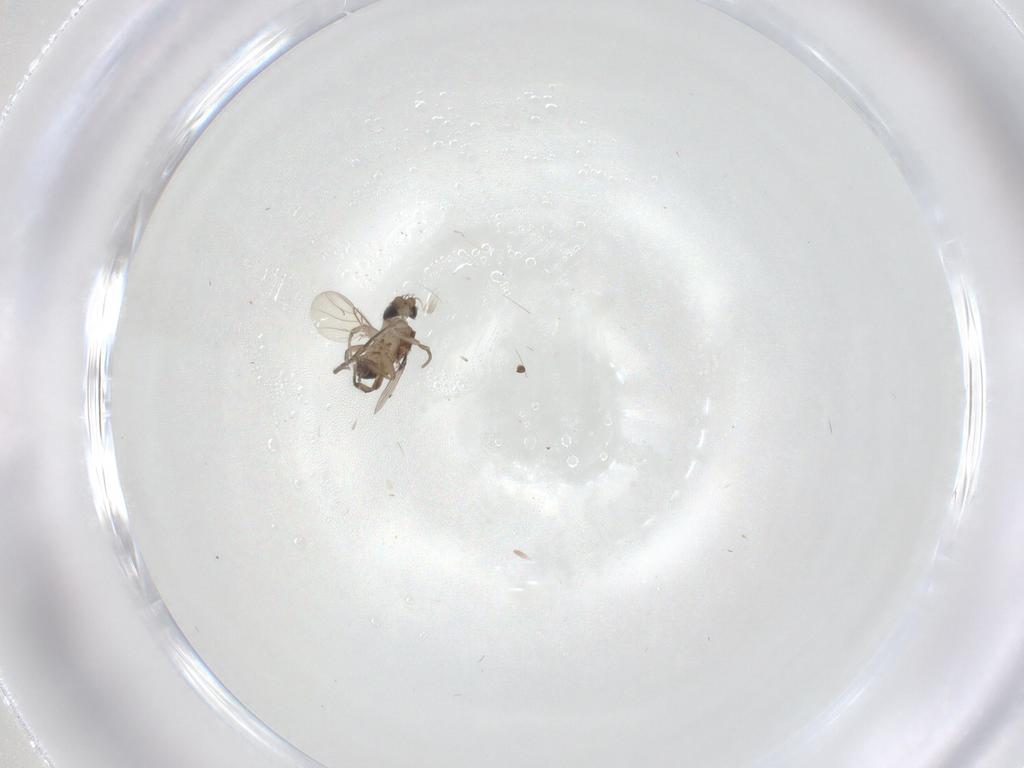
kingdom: Animalia
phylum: Arthropoda
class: Insecta
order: Diptera
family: Phoridae
